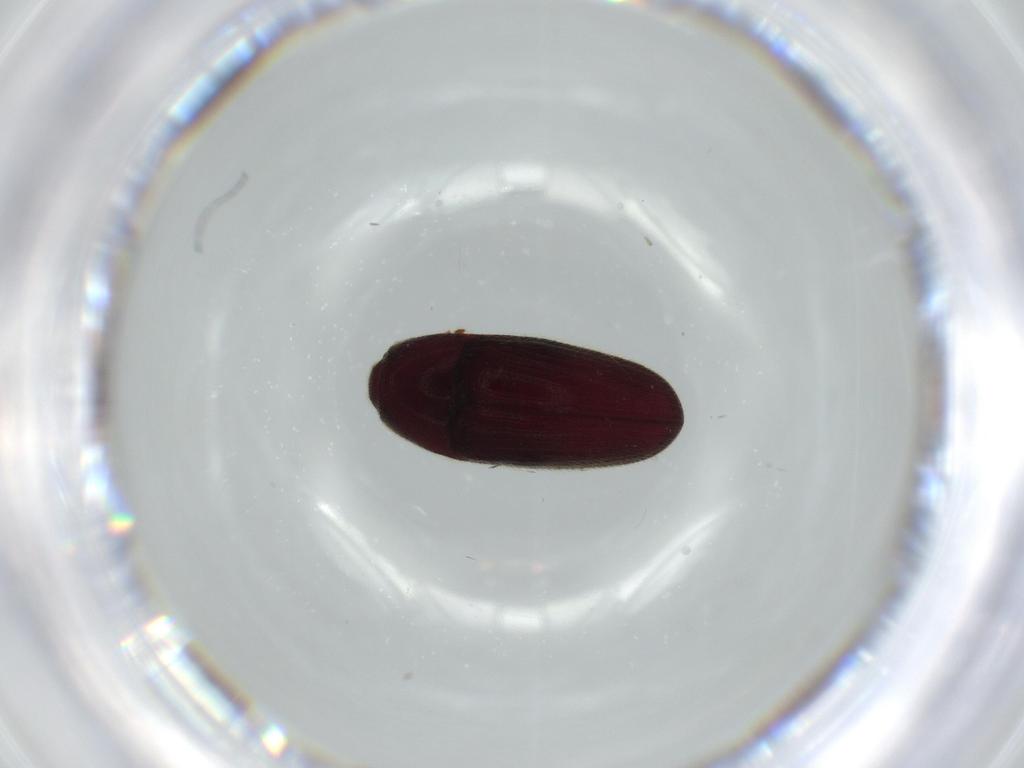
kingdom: Animalia
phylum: Arthropoda
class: Insecta
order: Coleoptera
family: Throscidae
